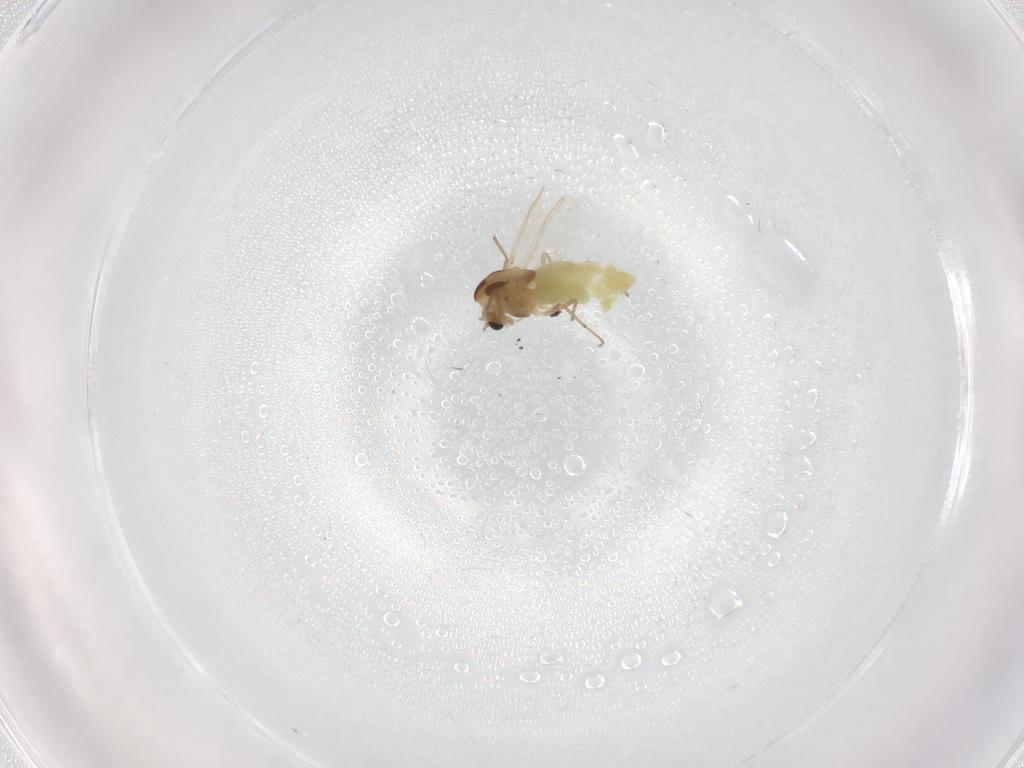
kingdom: Animalia
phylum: Arthropoda
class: Insecta
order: Diptera
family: Chironomidae
